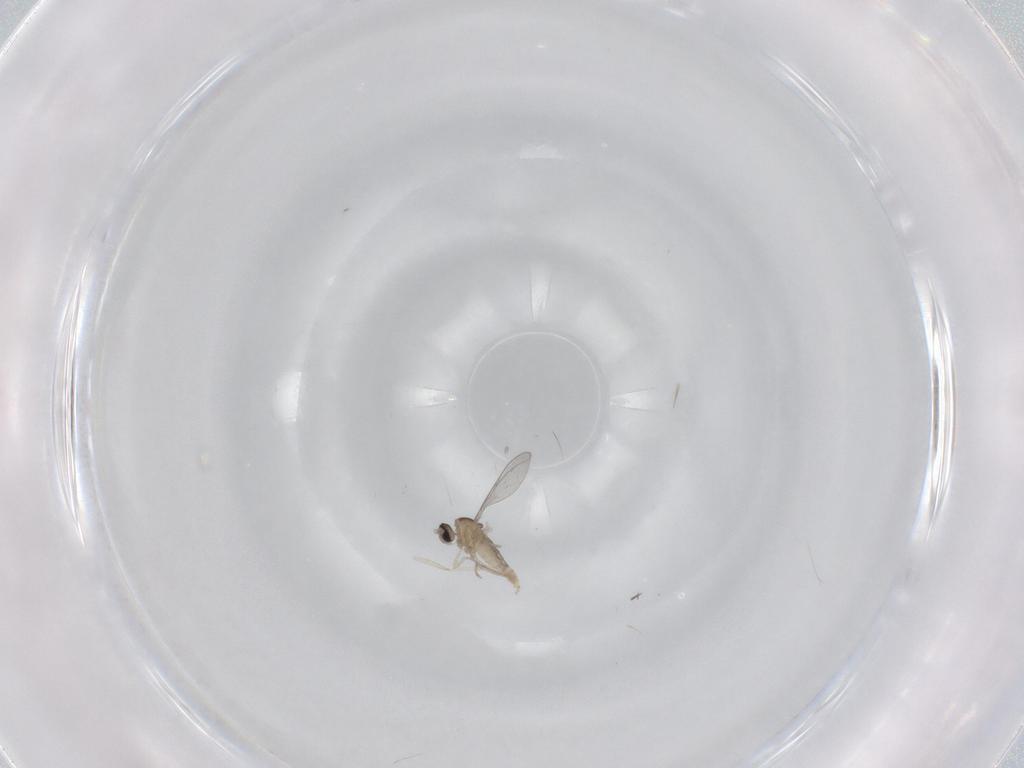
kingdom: Animalia
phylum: Arthropoda
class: Insecta
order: Diptera
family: Cecidomyiidae
